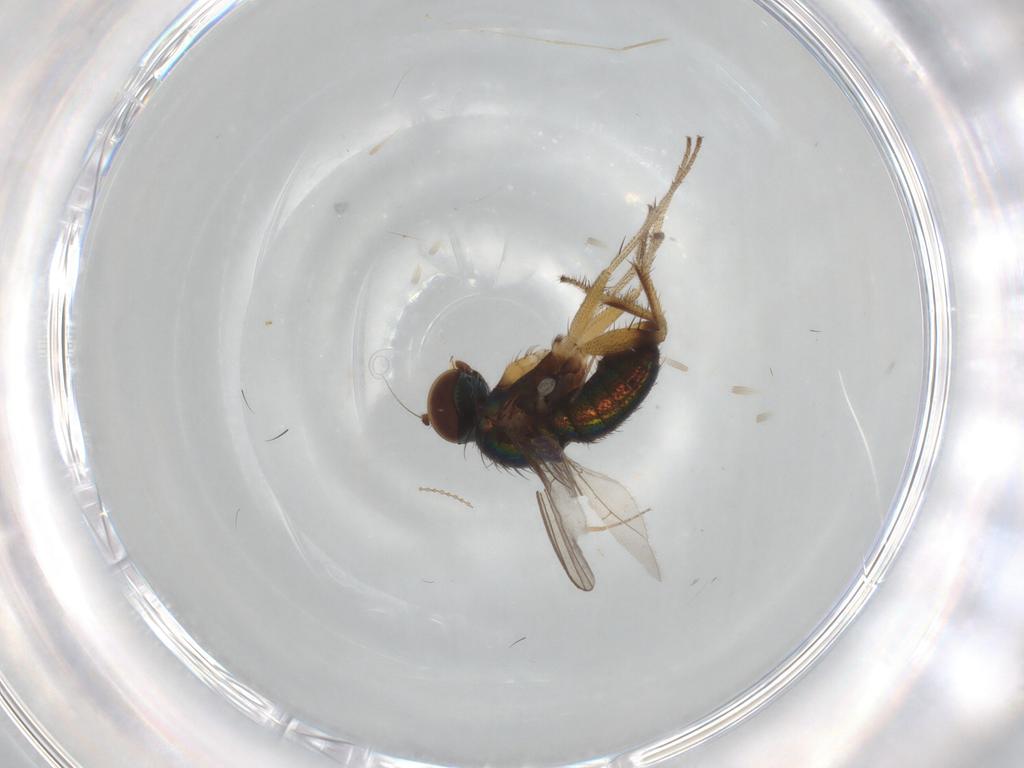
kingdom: Animalia
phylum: Arthropoda
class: Insecta
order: Diptera
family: Cecidomyiidae
